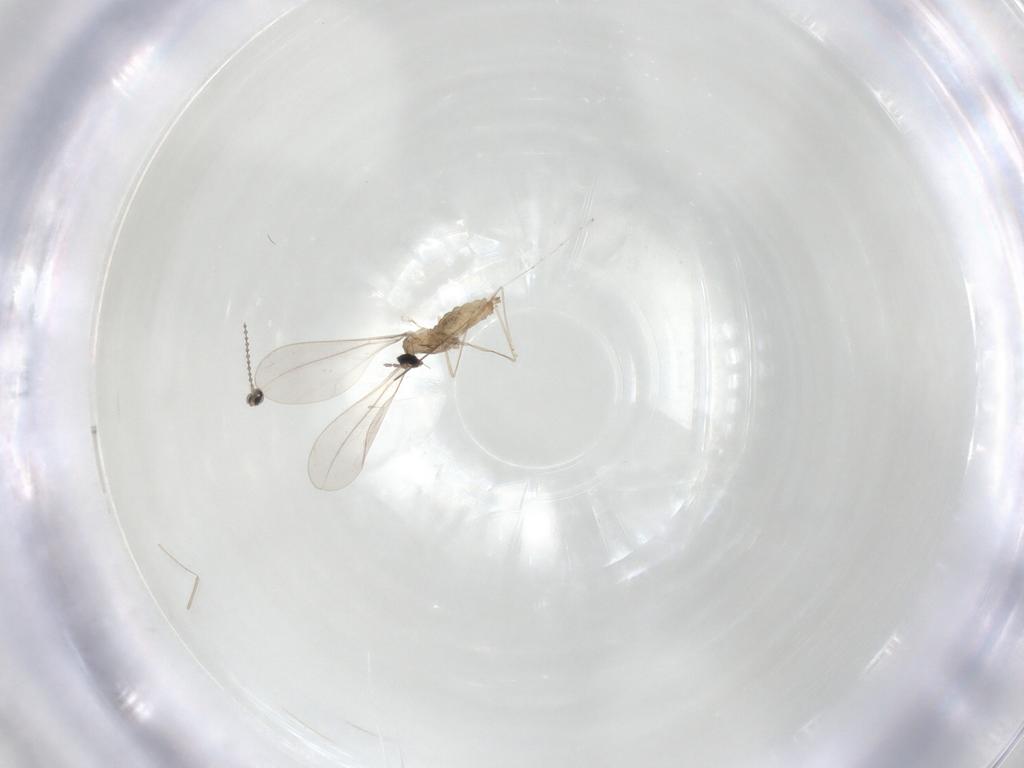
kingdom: Animalia
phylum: Arthropoda
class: Insecta
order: Diptera
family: Cecidomyiidae
